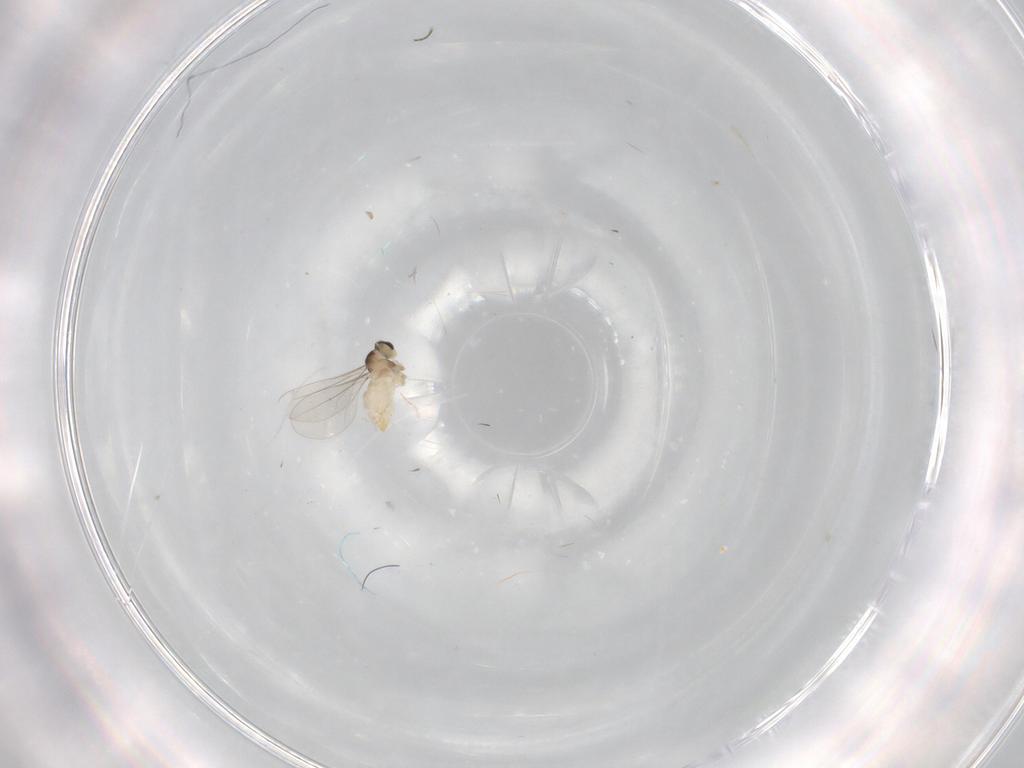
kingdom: Animalia
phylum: Arthropoda
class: Insecta
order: Diptera
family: Cecidomyiidae
